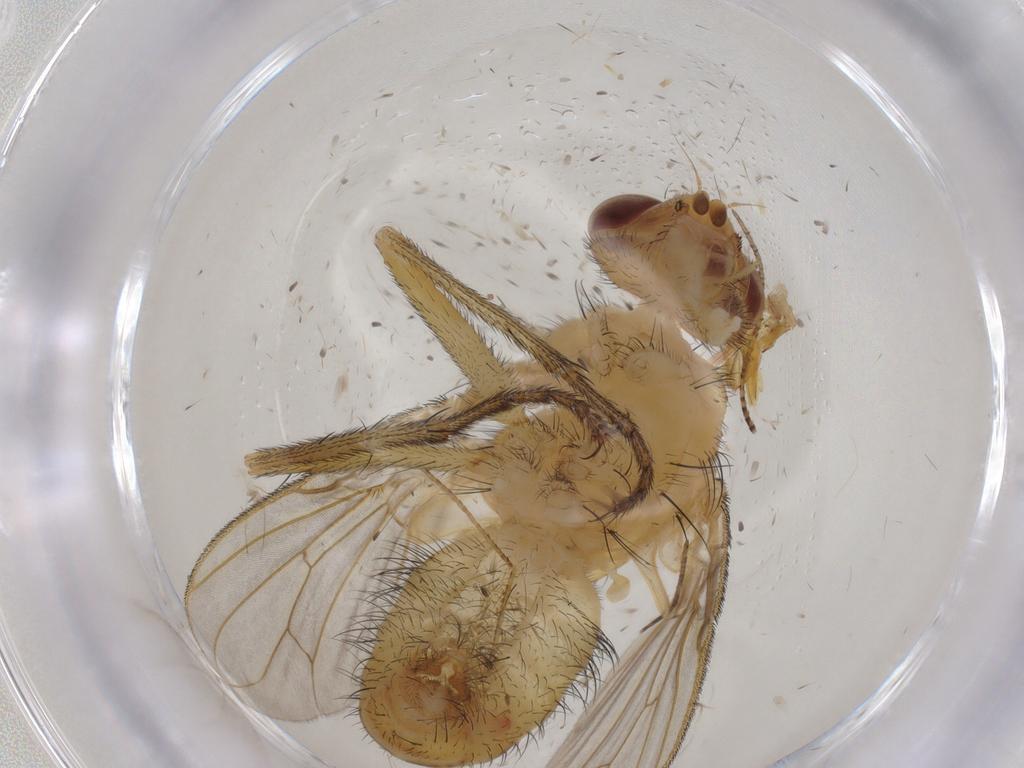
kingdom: Animalia
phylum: Arthropoda
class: Insecta
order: Diptera
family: Tachinidae
